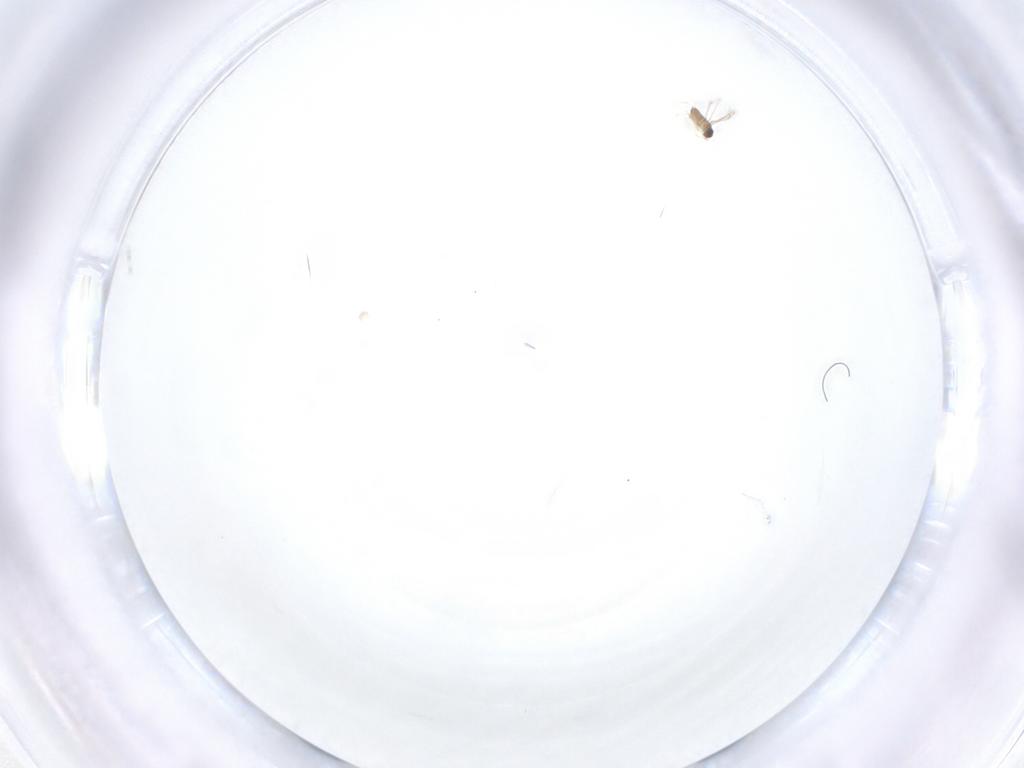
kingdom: Animalia
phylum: Arthropoda
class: Insecta
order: Hymenoptera
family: Mymaridae
